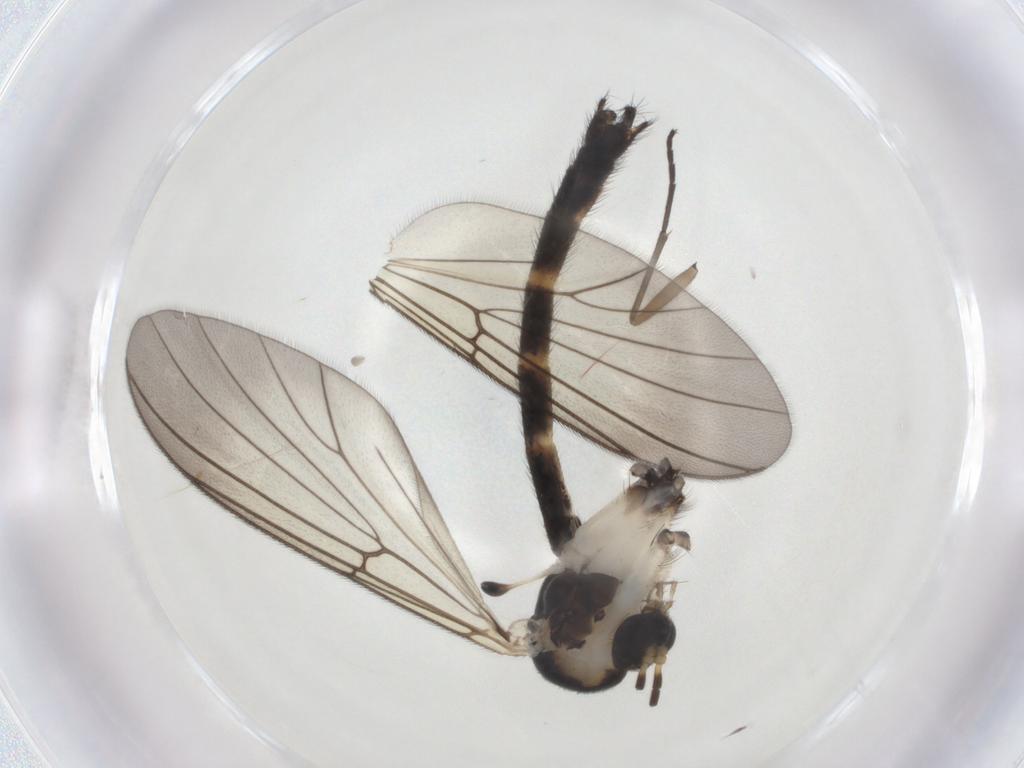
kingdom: Animalia
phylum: Arthropoda
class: Insecta
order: Diptera
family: Mycetophilidae
